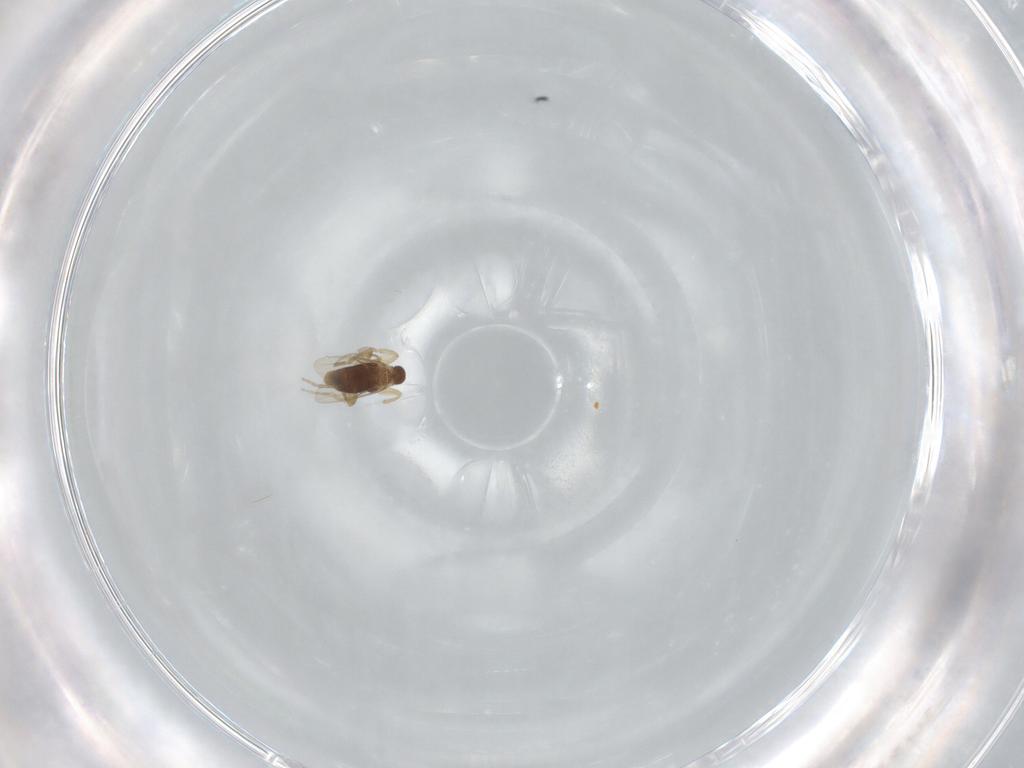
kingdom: Animalia
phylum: Arthropoda
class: Insecta
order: Diptera
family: Phoridae
